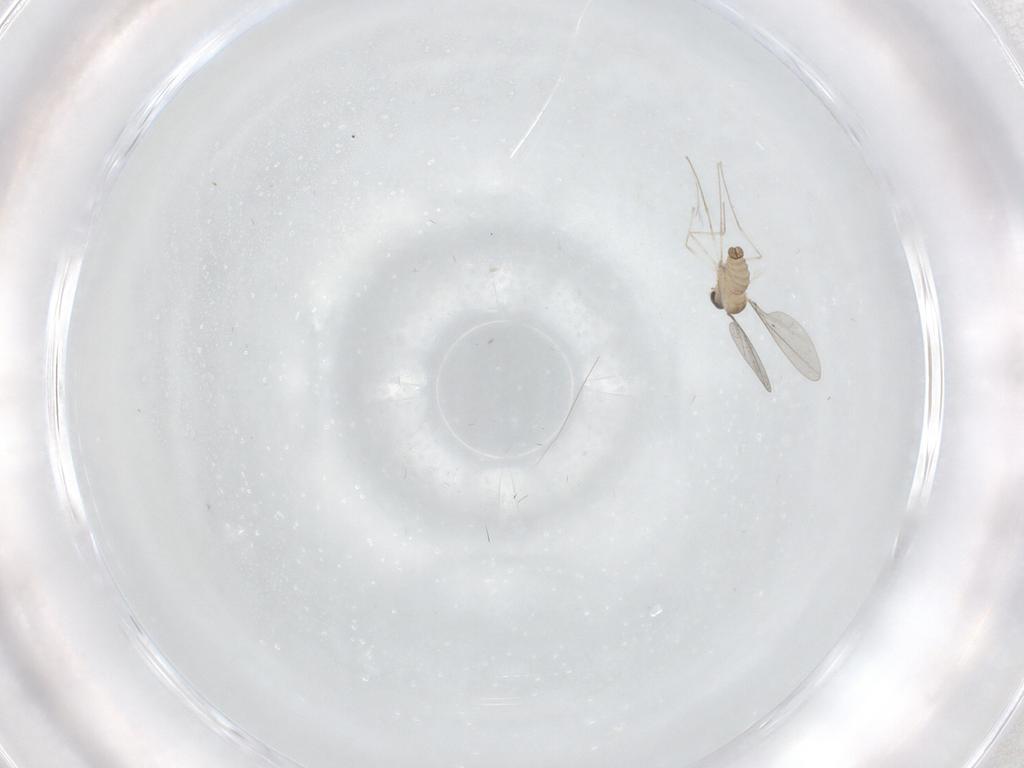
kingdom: Animalia
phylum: Arthropoda
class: Insecta
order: Diptera
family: Cecidomyiidae
